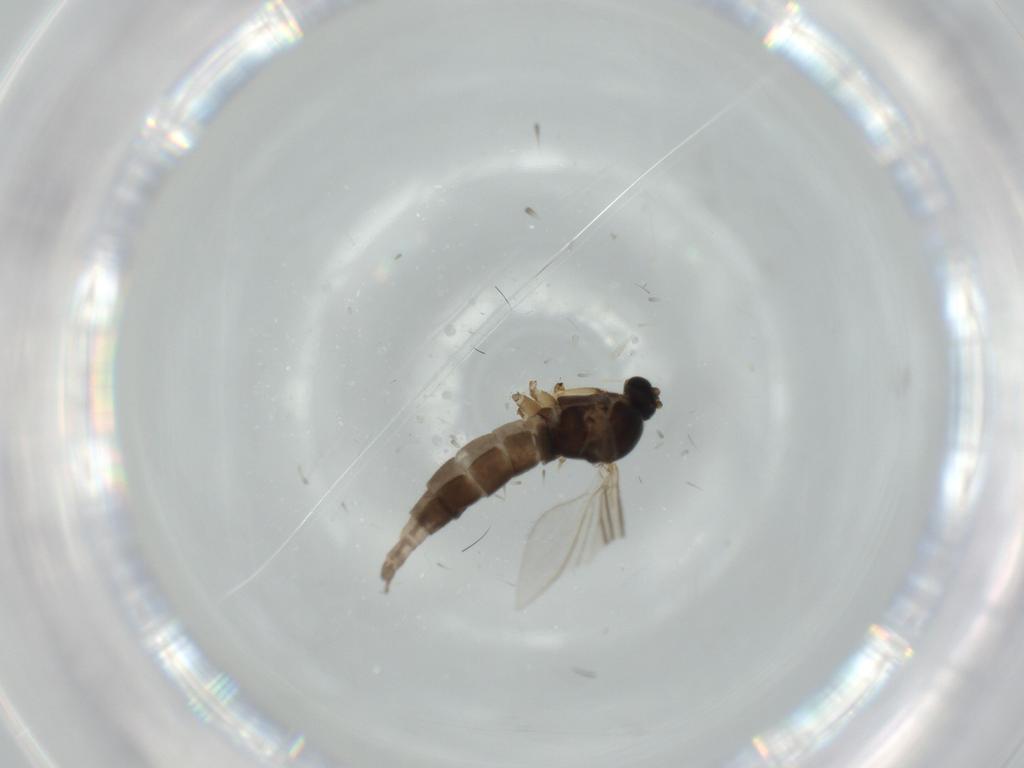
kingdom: Animalia
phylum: Arthropoda
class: Insecta
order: Diptera
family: Sciaridae
